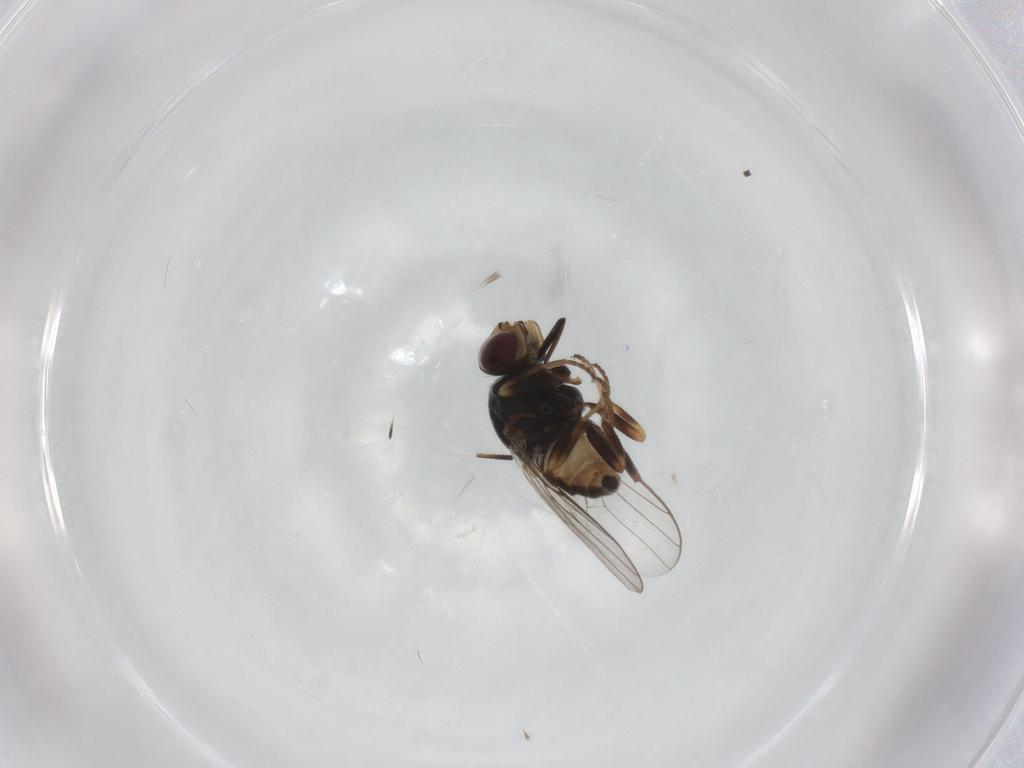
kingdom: Animalia
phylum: Arthropoda
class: Insecta
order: Diptera
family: Chloropidae
